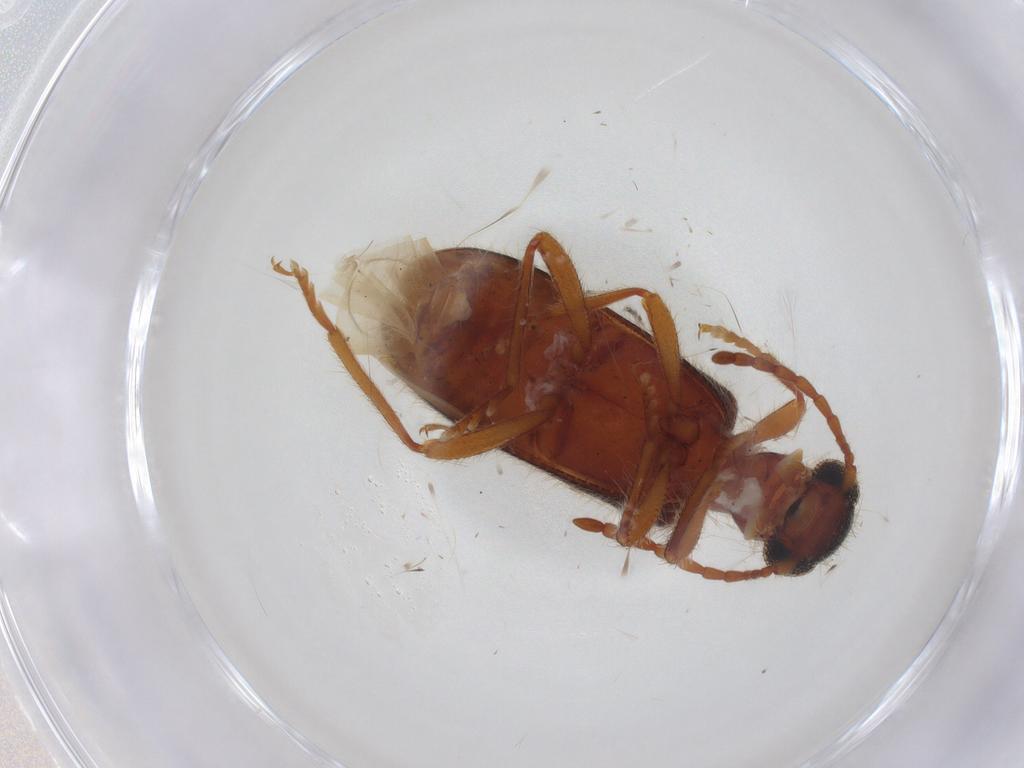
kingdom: Animalia
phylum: Arthropoda
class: Insecta
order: Coleoptera
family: Cleridae
